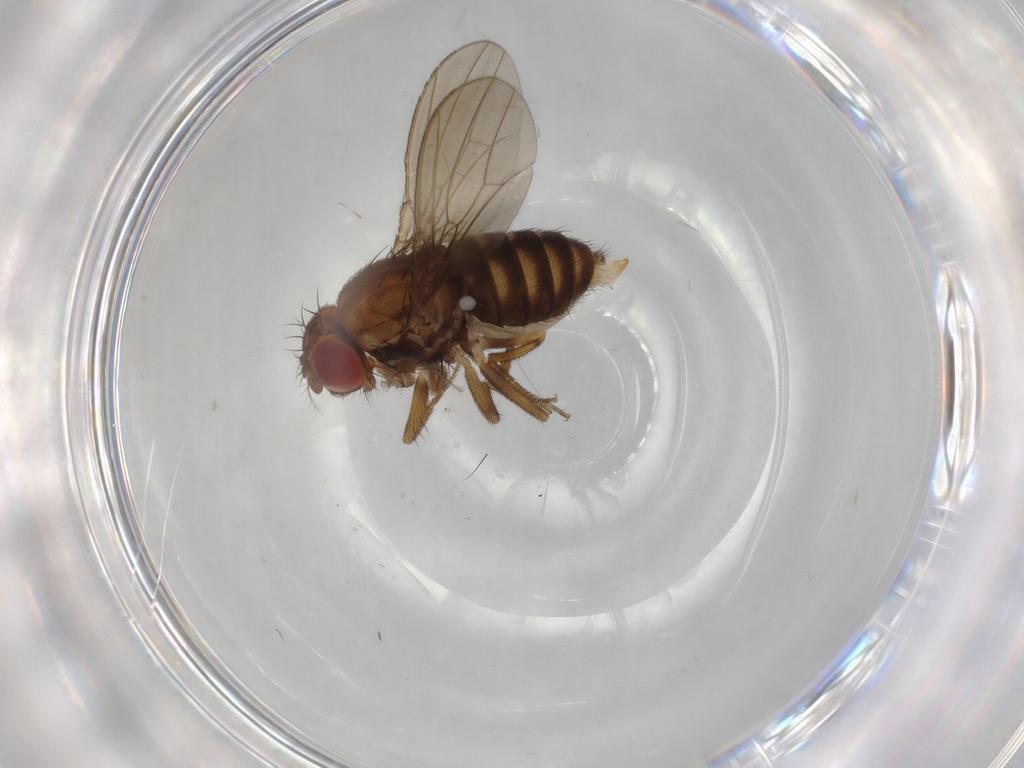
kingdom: Animalia
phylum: Arthropoda
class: Insecta
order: Diptera
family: Drosophilidae
